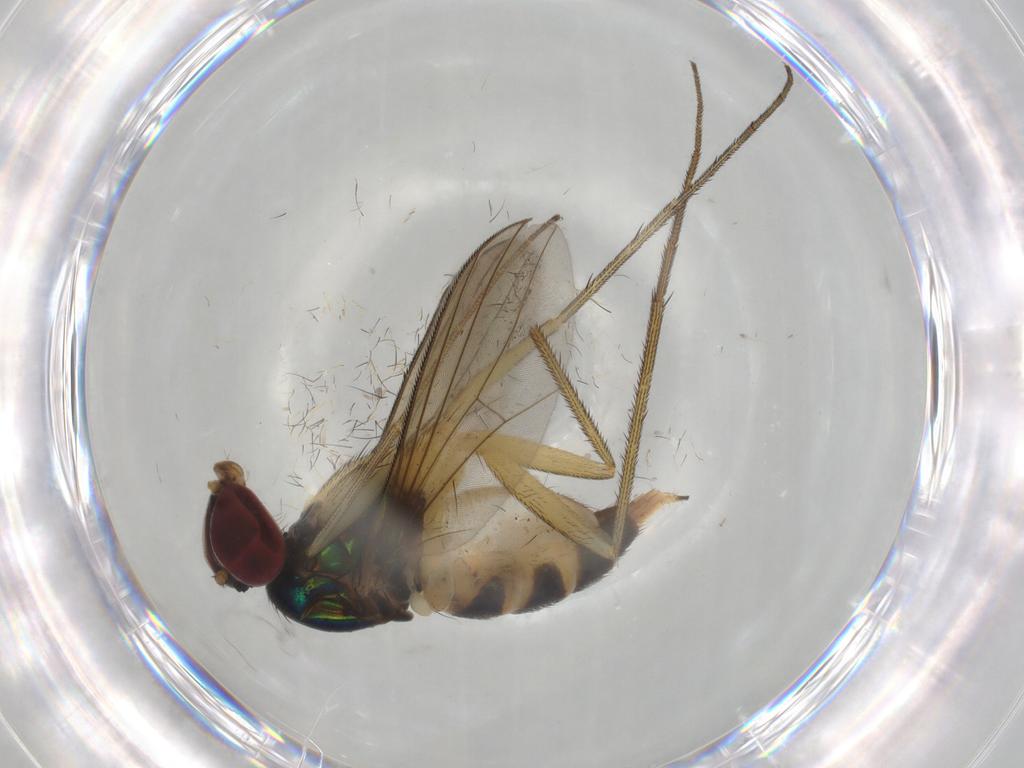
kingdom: Animalia
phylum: Arthropoda
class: Insecta
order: Diptera
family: Dolichopodidae
